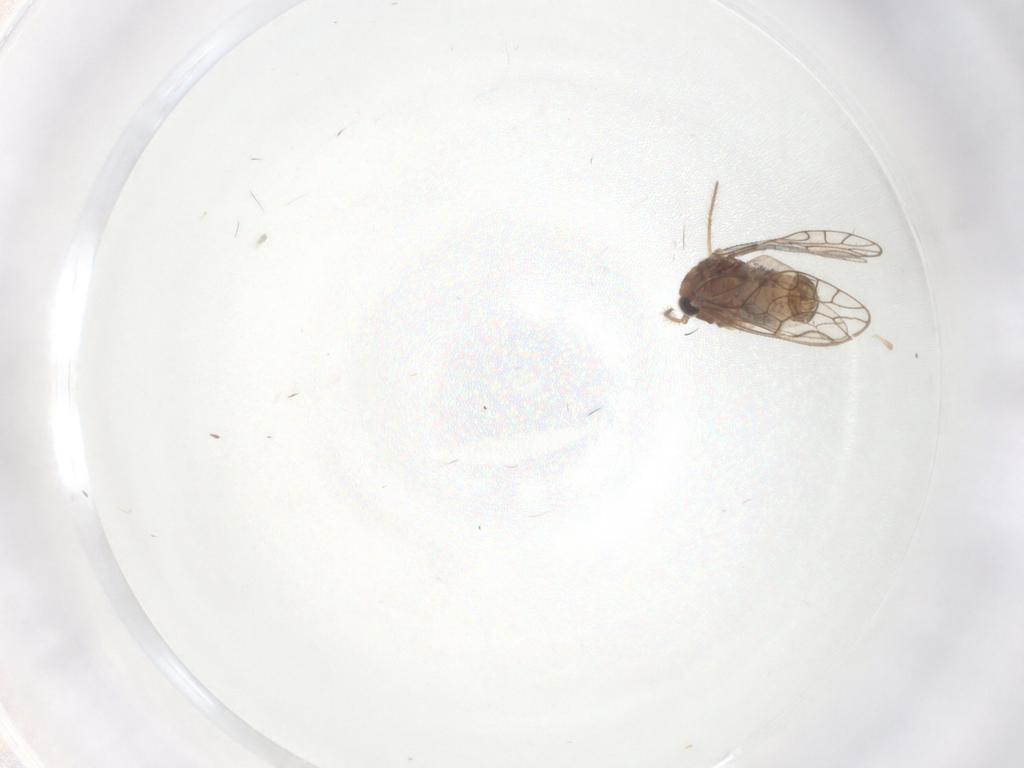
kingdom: Animalia
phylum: Arthropoda
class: Insecta
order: Psocodea
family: Epipsocidae
